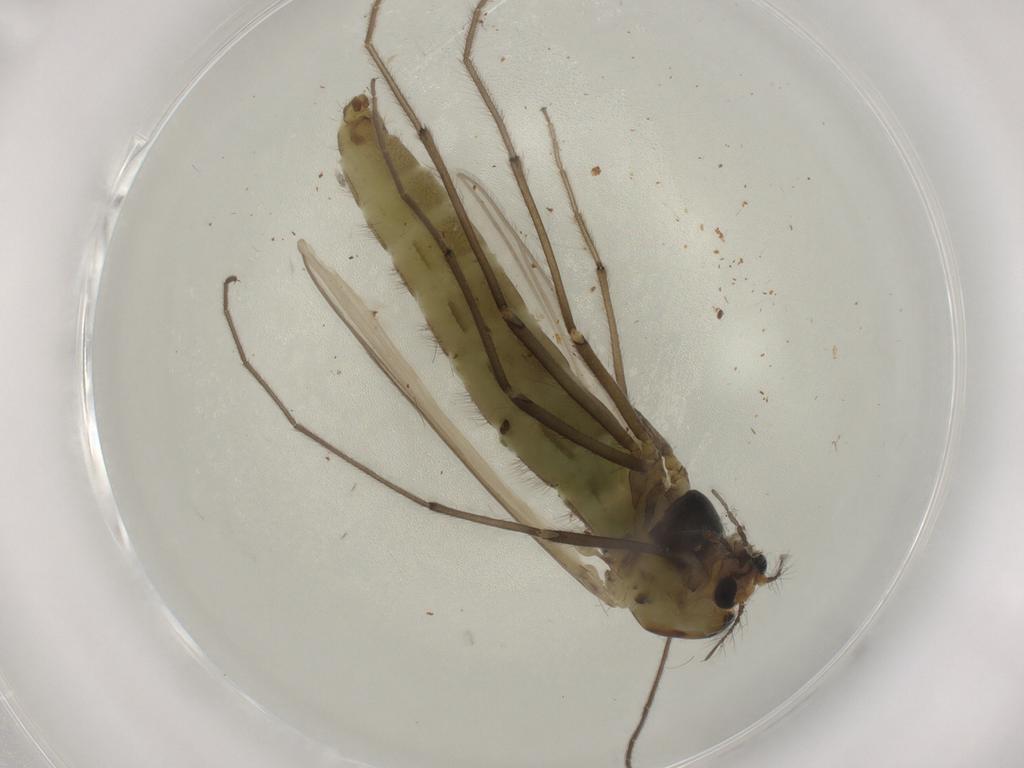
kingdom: Animalia
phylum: Arthropoda
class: Insecta
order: Diptera
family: Chironomidae
